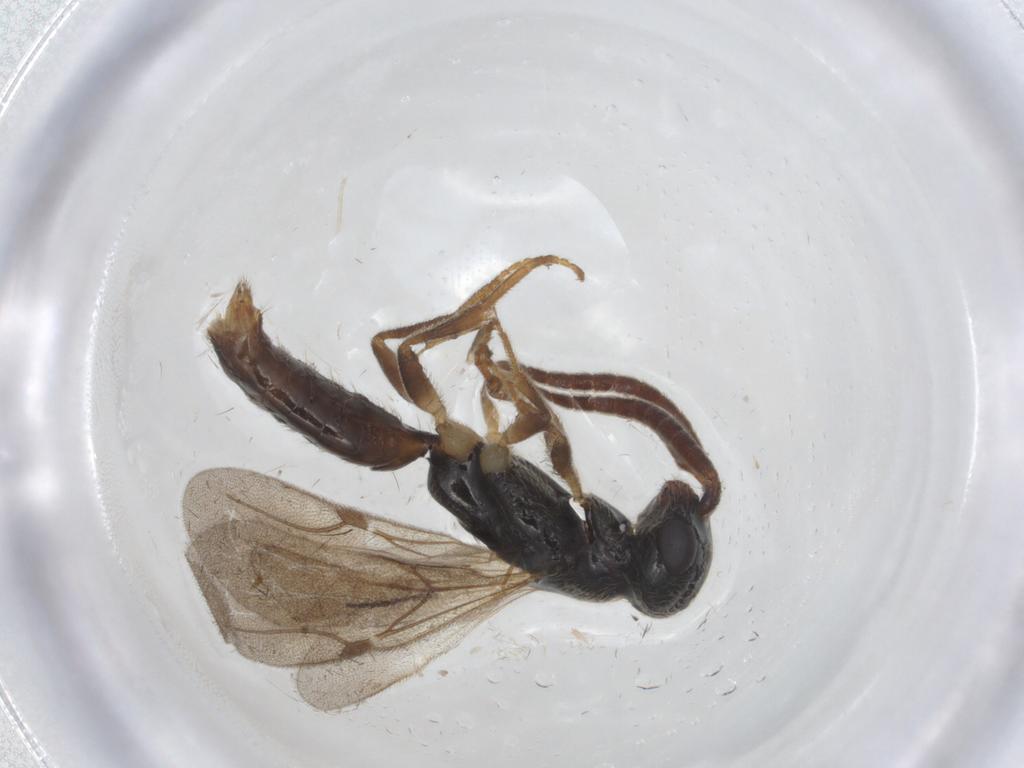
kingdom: Animalia
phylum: Arthropoda
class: Insecta
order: Hymenoptera
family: Bethylidae
